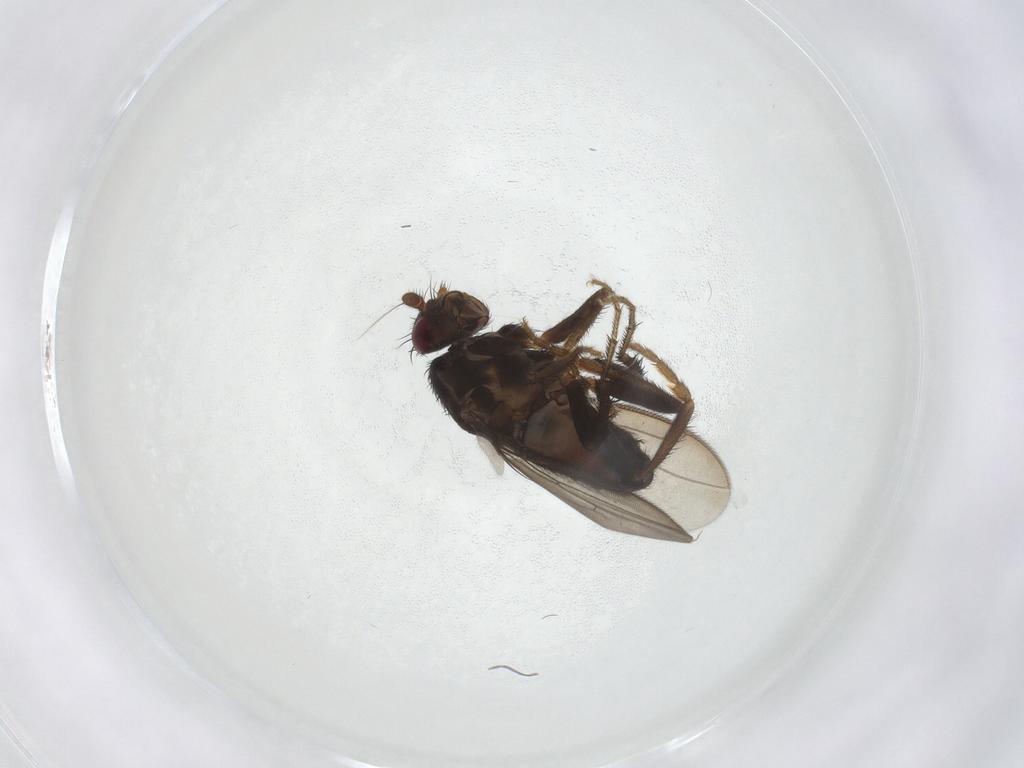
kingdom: Animalia
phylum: Arthropoda
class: Insecta
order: Diptera
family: Sphaeroceridae
